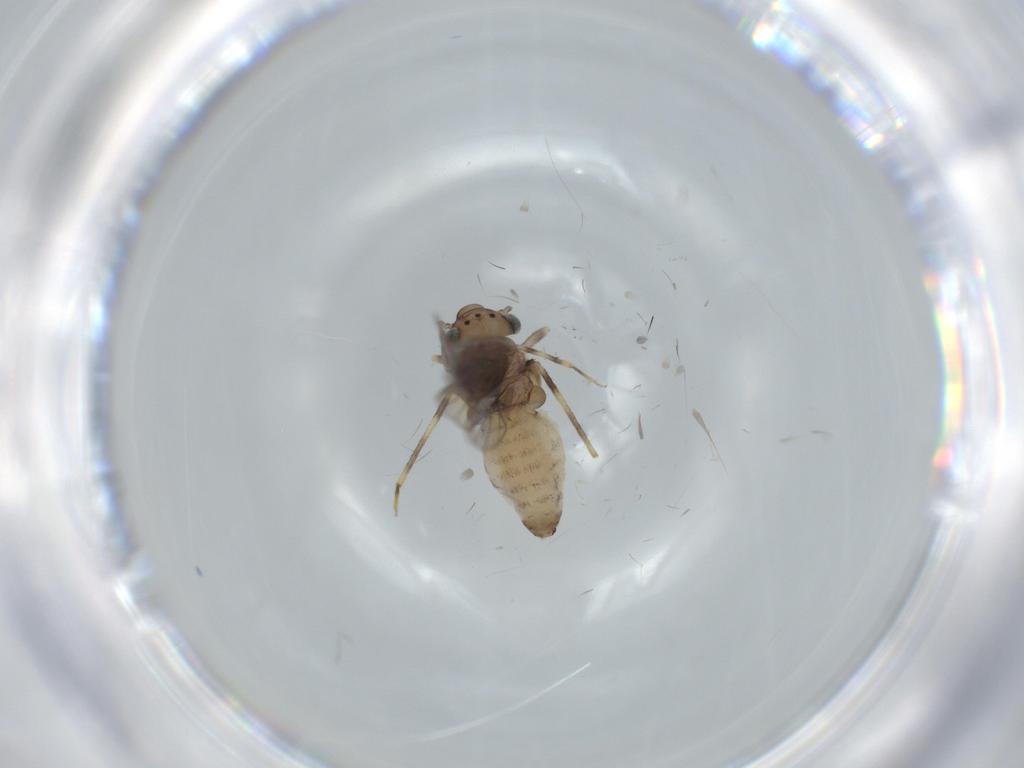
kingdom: Animalia
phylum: Arthropoda
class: Insecta
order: Psocodea
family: Lepidopsocidae
